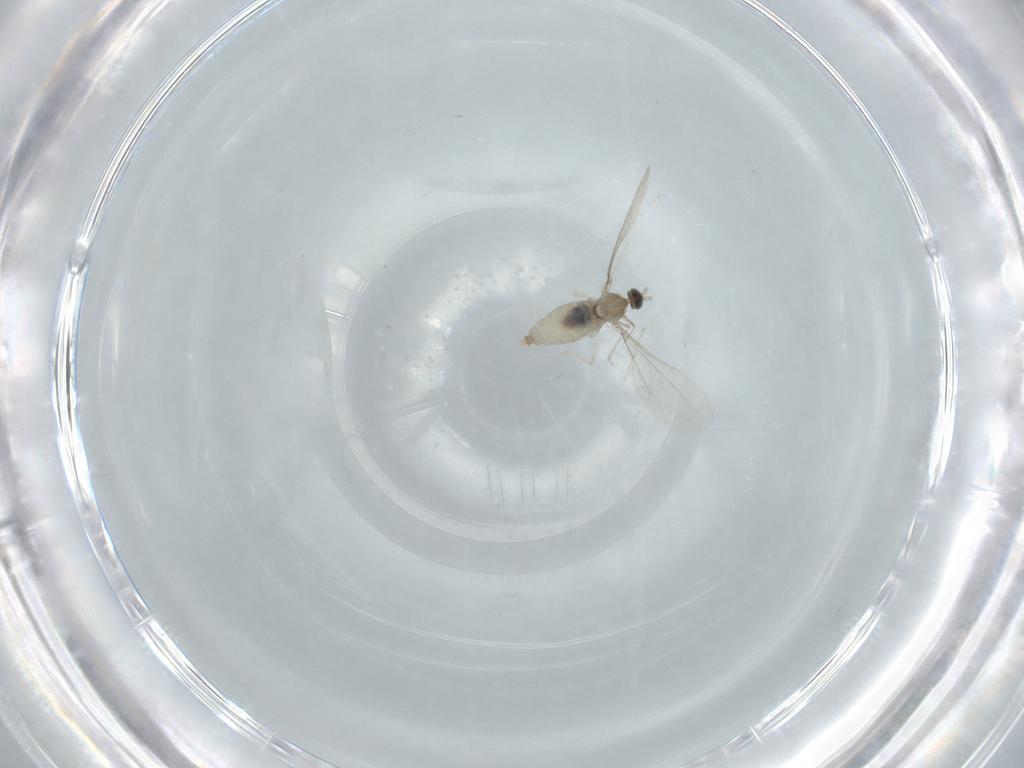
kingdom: Animalia
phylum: Arthropoda
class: Insecta
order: Diptera
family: Cecidomyiidae
